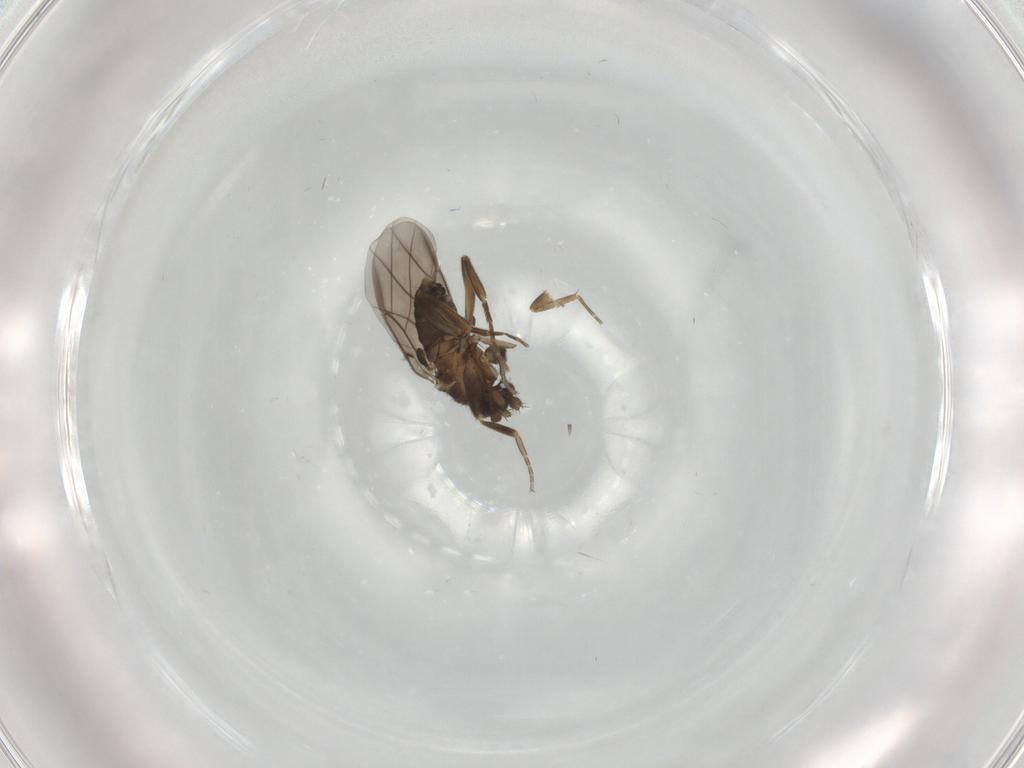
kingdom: Animalia
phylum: Arthropoda
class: Insecta
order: Diptera
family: Phoridae
